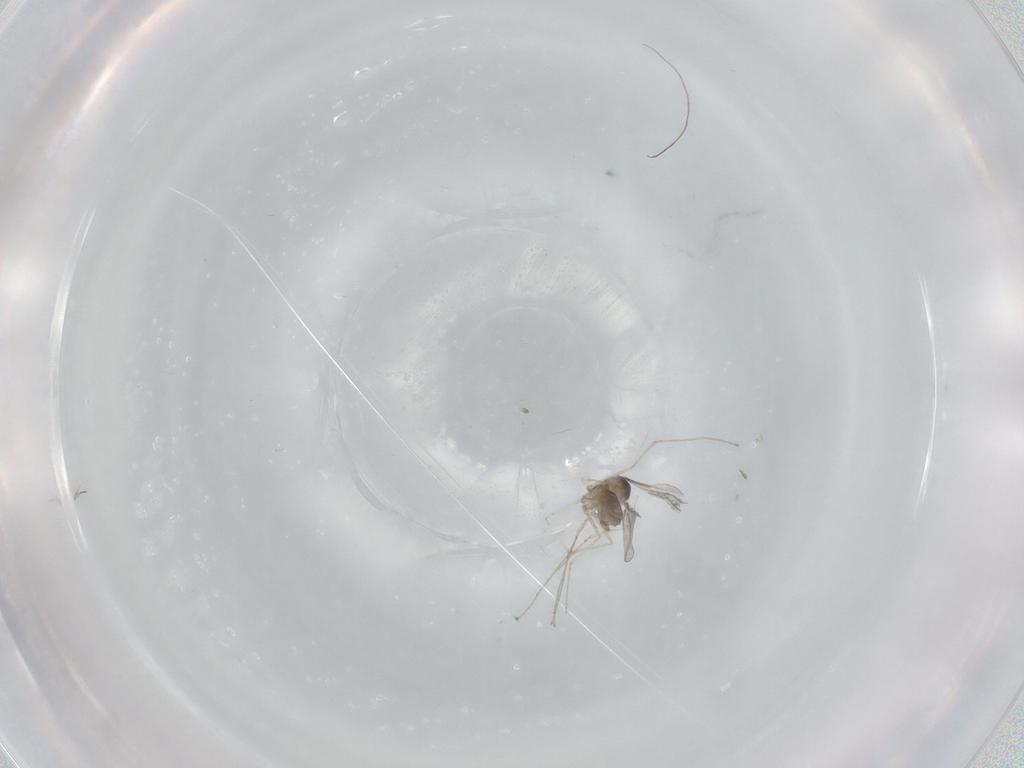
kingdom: Animalia
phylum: Arthropoda
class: Insecta
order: Diptera
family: Cecidomyiidae
